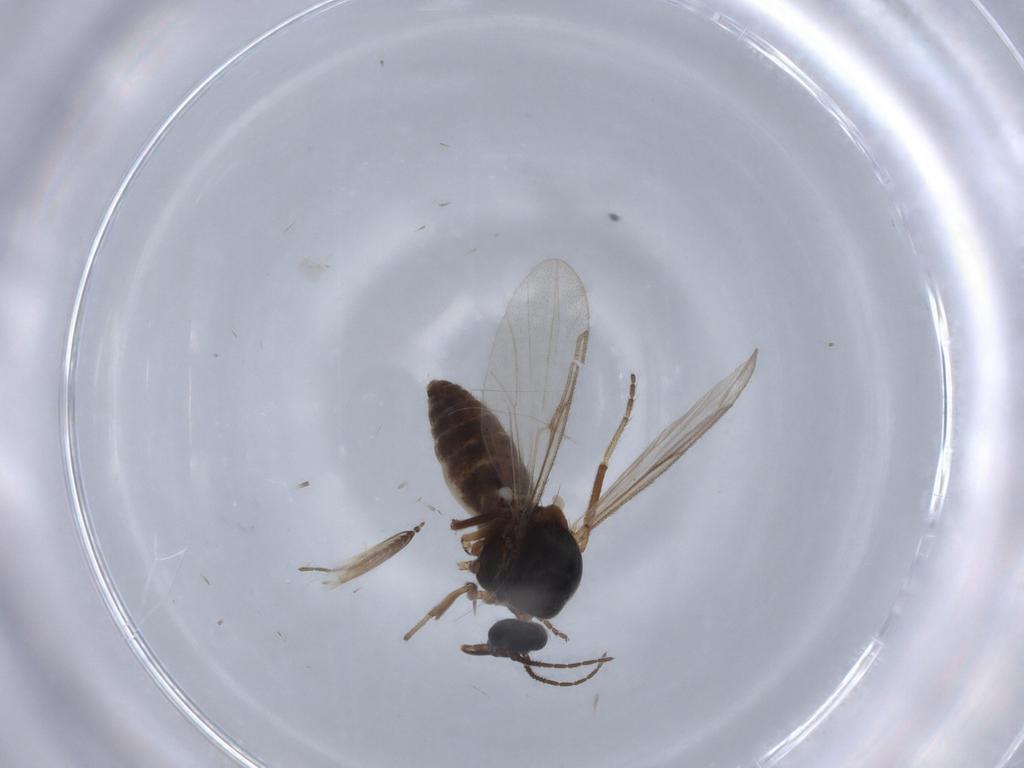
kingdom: Animalia
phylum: Arthropoda
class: Insecta
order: Diptera
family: Ceratopogonidae
